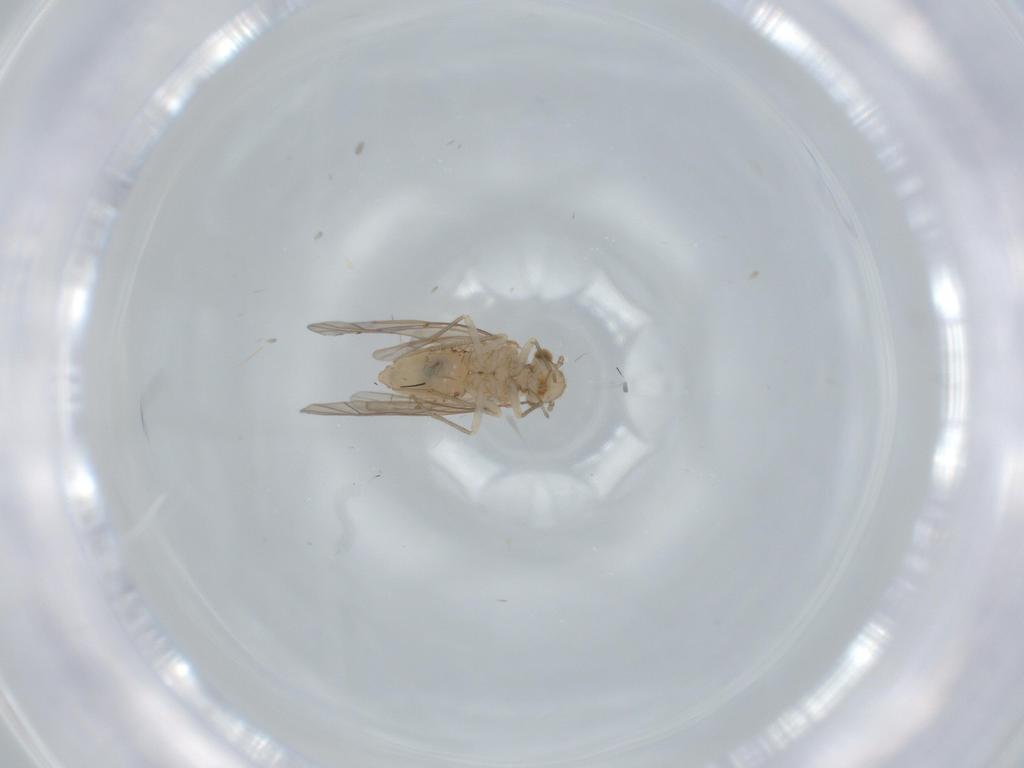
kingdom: Animalia
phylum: Arthropoda
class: Insecta
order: Psocodea
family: Lachesillidae
